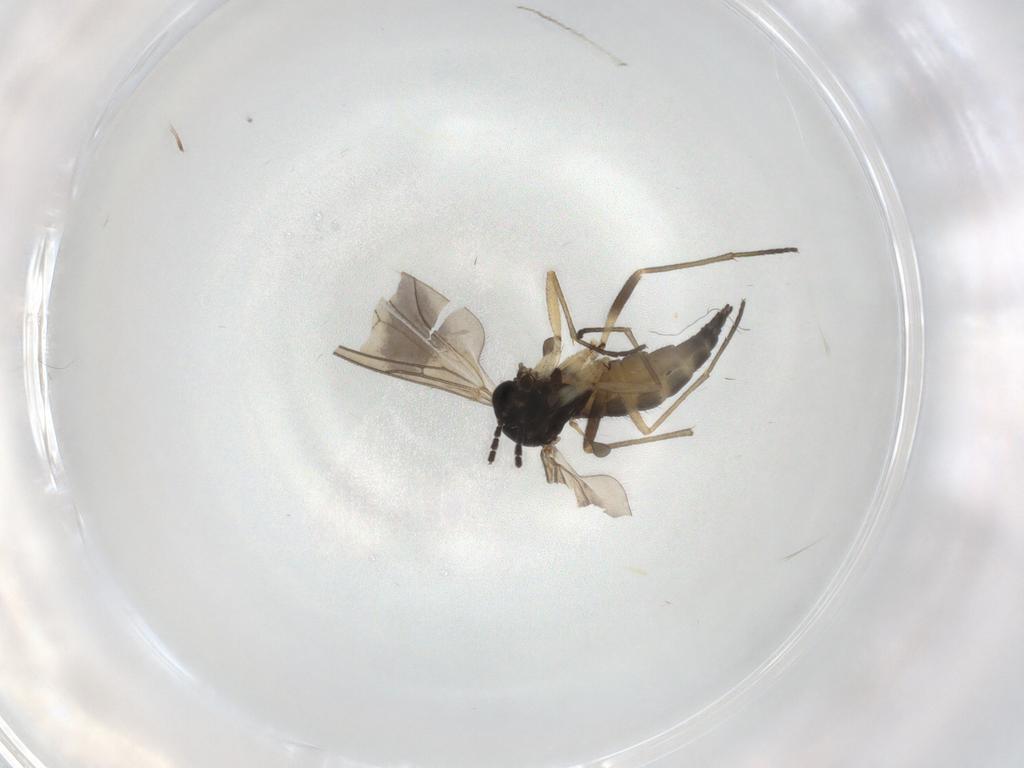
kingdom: Animalia
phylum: Arthropoda
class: Insecta
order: Diptera
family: Sciaridae
